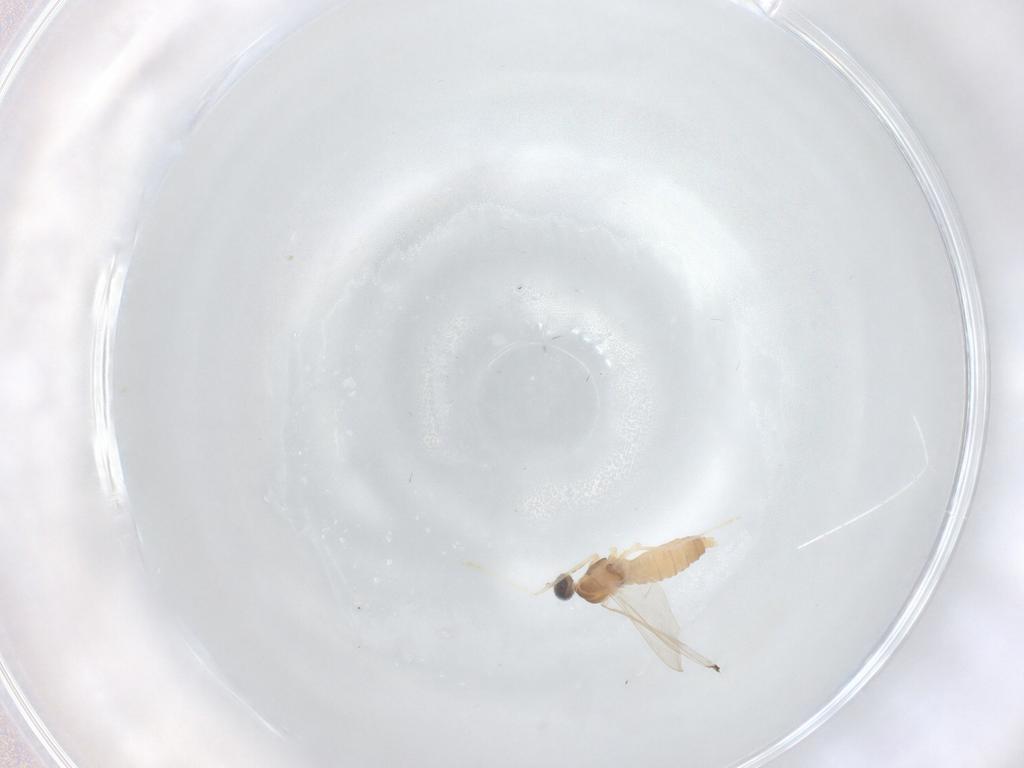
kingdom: Animalia
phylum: Arthropoda
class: Insecta
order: Diptera
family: Cecidomyiidae
